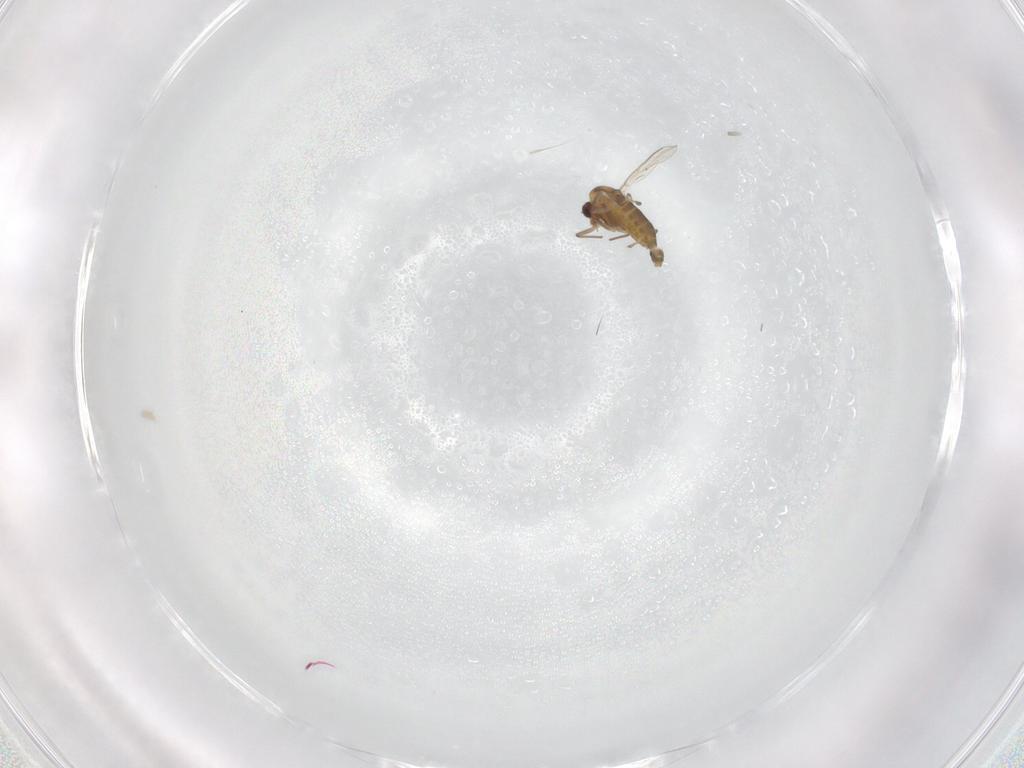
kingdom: Animalia
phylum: Arthropoda
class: Insecta
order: Diptera
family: Chironomidae
